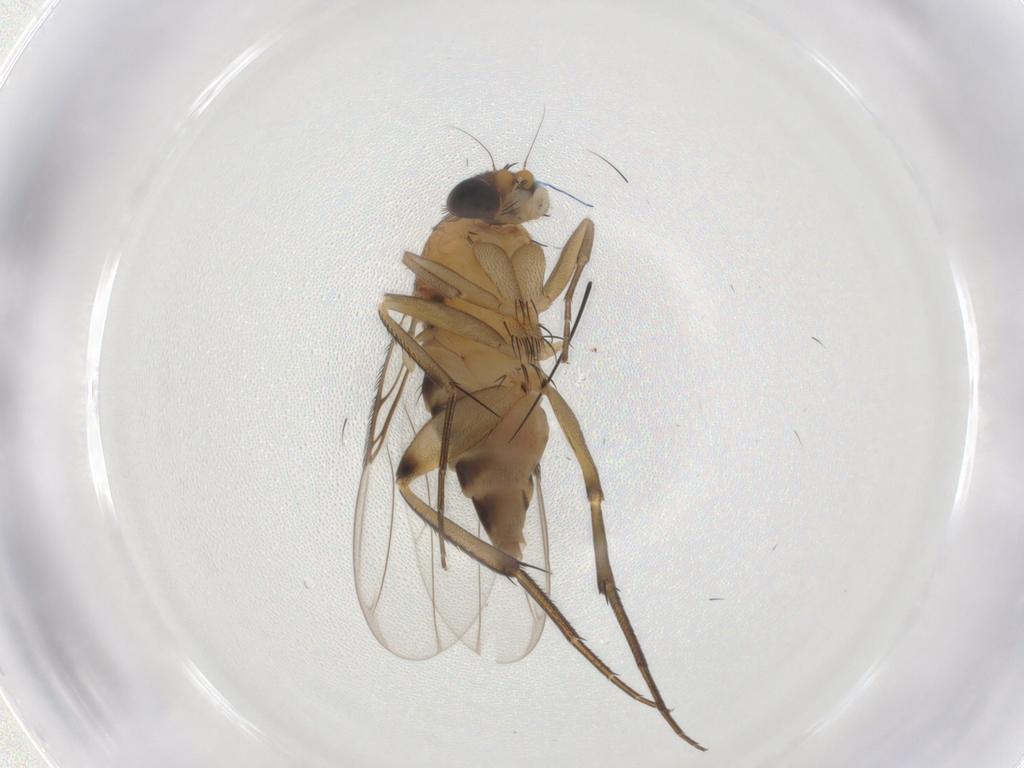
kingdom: Animalia
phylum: Arthropoda
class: Insecta
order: Diptera
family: Phoridae
